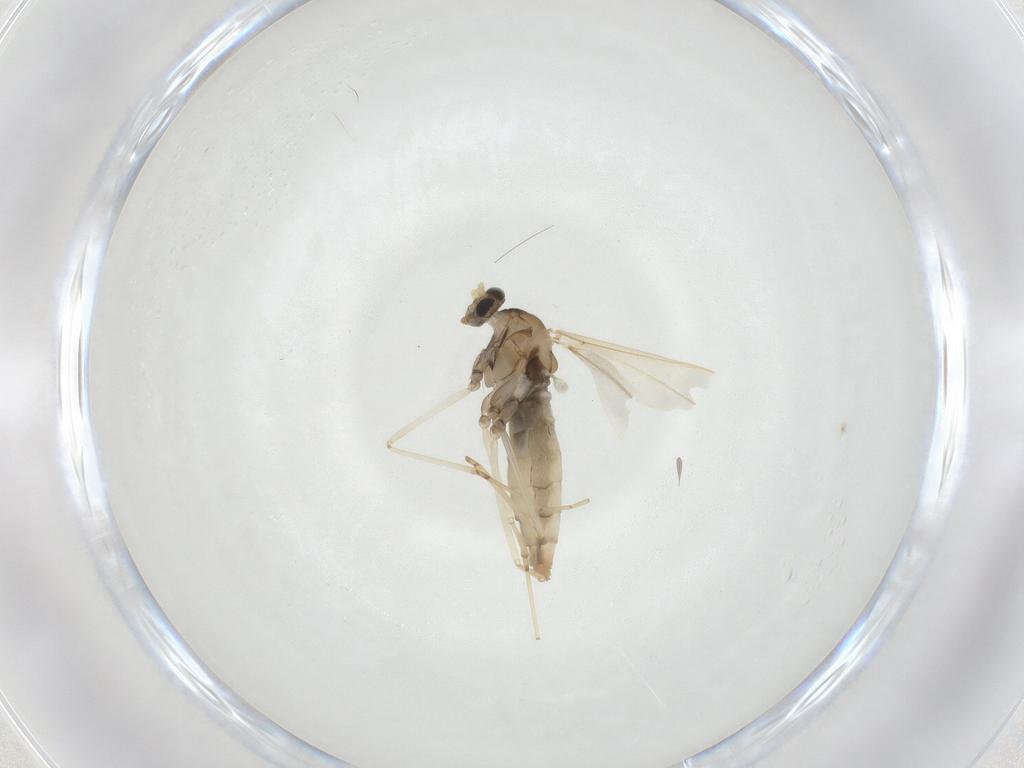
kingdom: Animalia
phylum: Arthropoda
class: Insecta
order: Diptera
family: Cecidomyiidae
